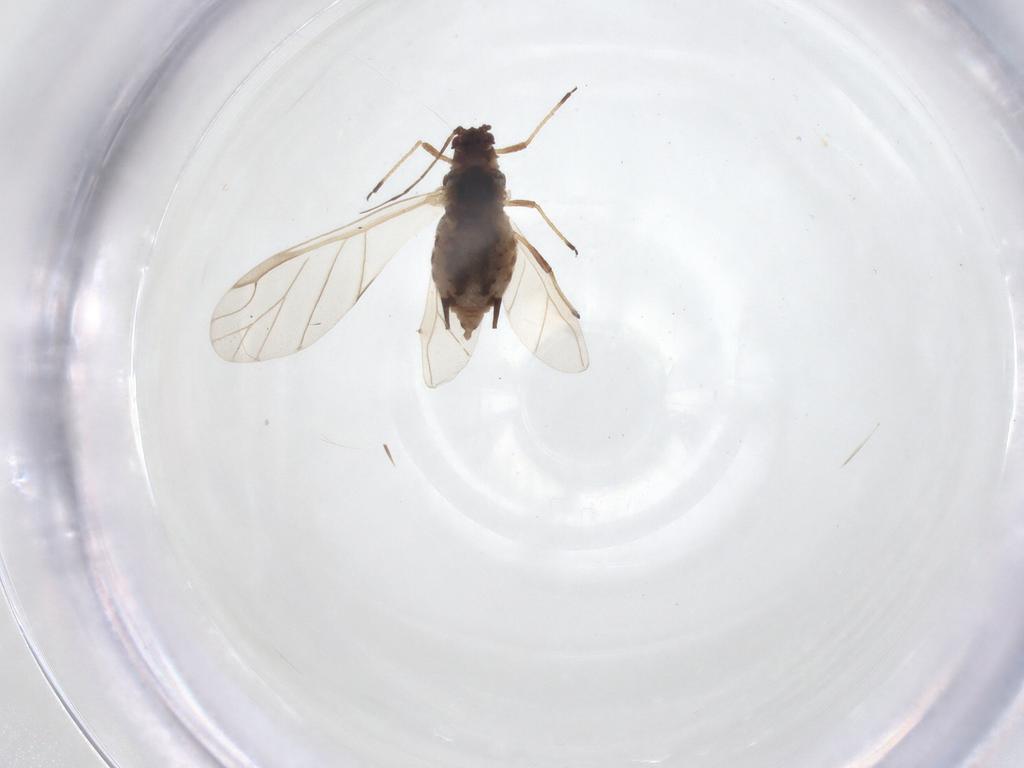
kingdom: Animalia
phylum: Arthropoda
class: Insecta
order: Hemiptera
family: Aphididae
